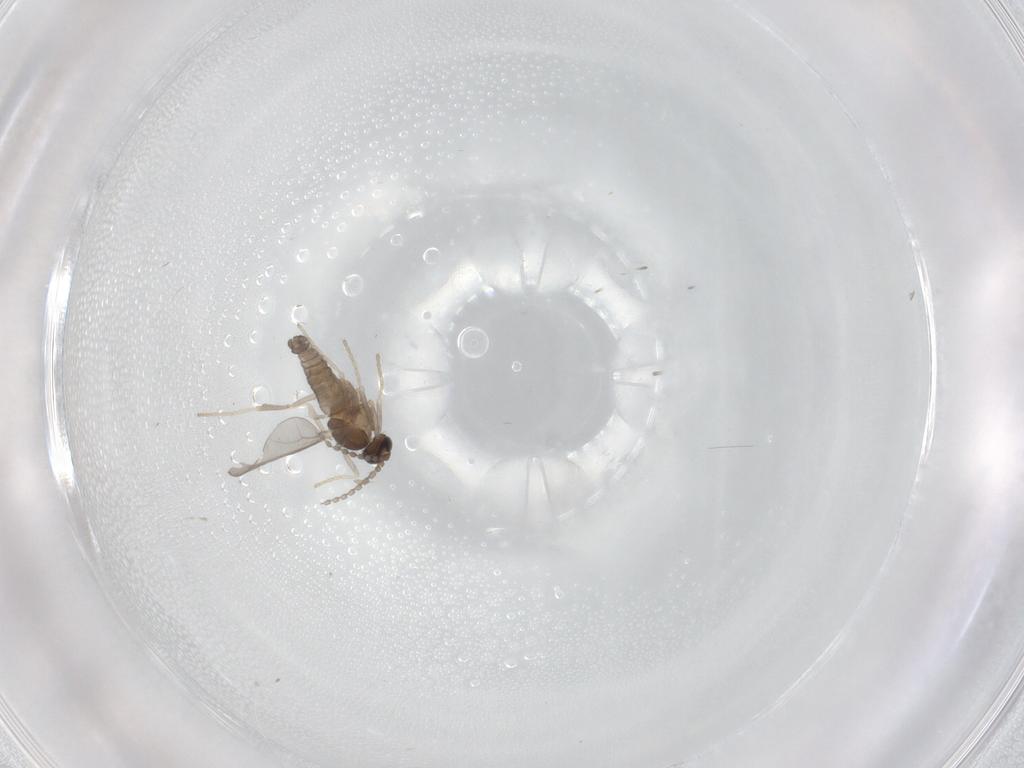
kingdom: Animalia
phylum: Arthropoda
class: Insecta
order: Diptera
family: Cecidomyiidae
